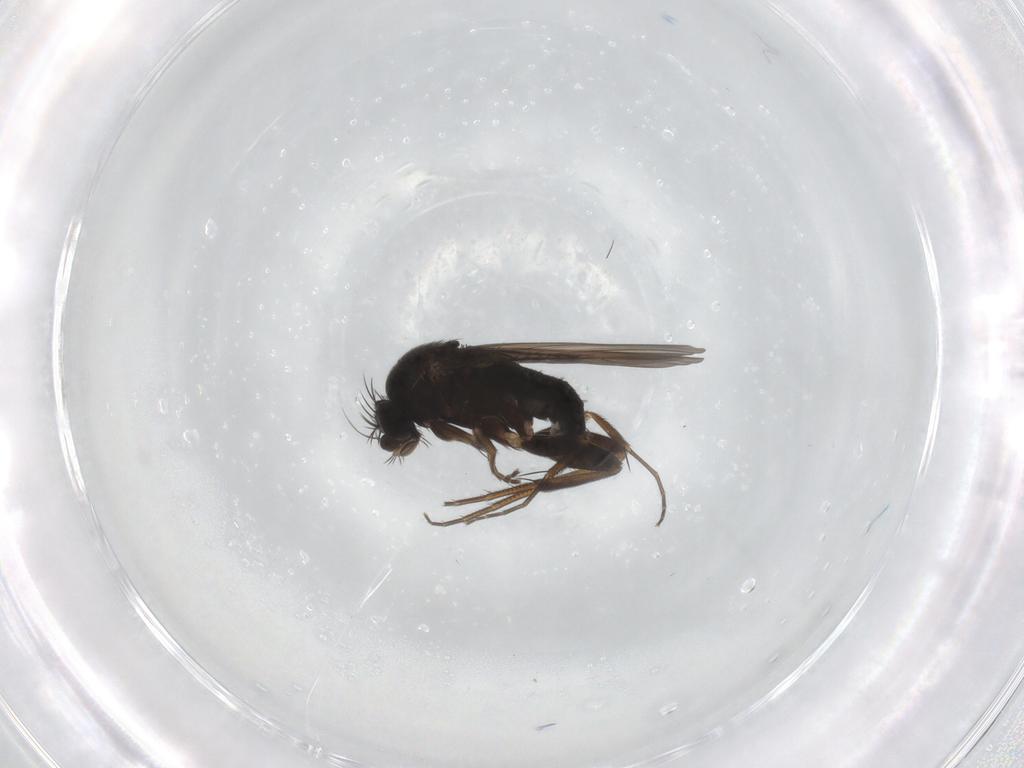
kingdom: Animalia
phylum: Arthropoda
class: Insecta
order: Diptera
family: Phoridae
